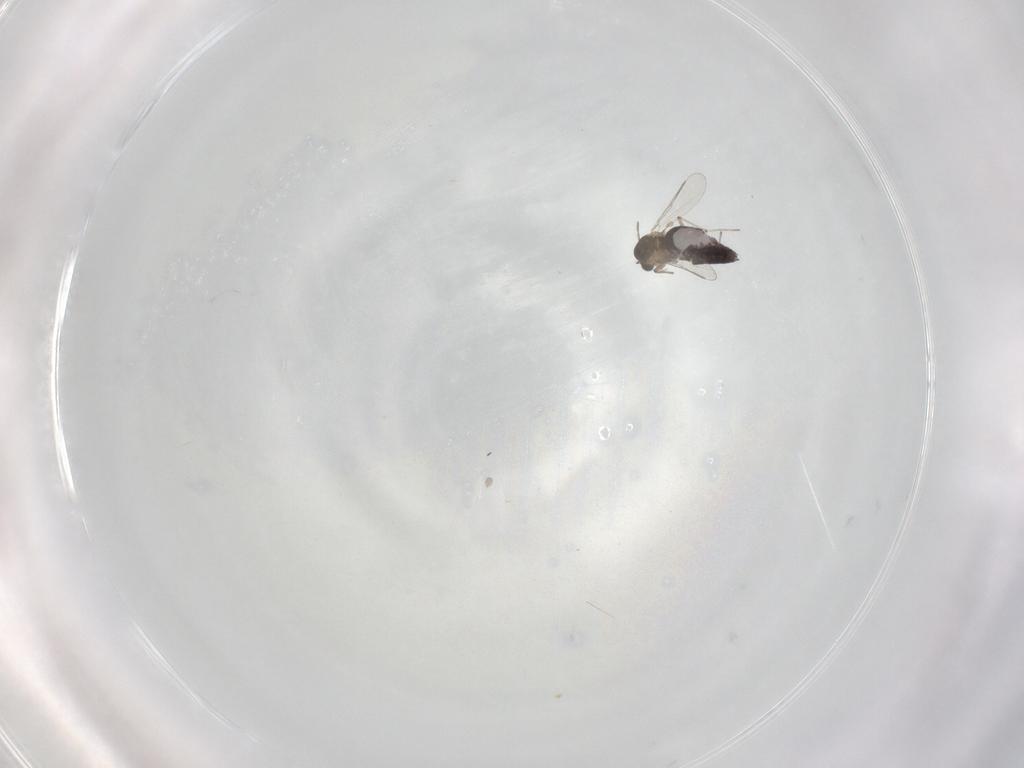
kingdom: Animalia
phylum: Arthropoda
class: Insecta
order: Diptera
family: Chironomidae
